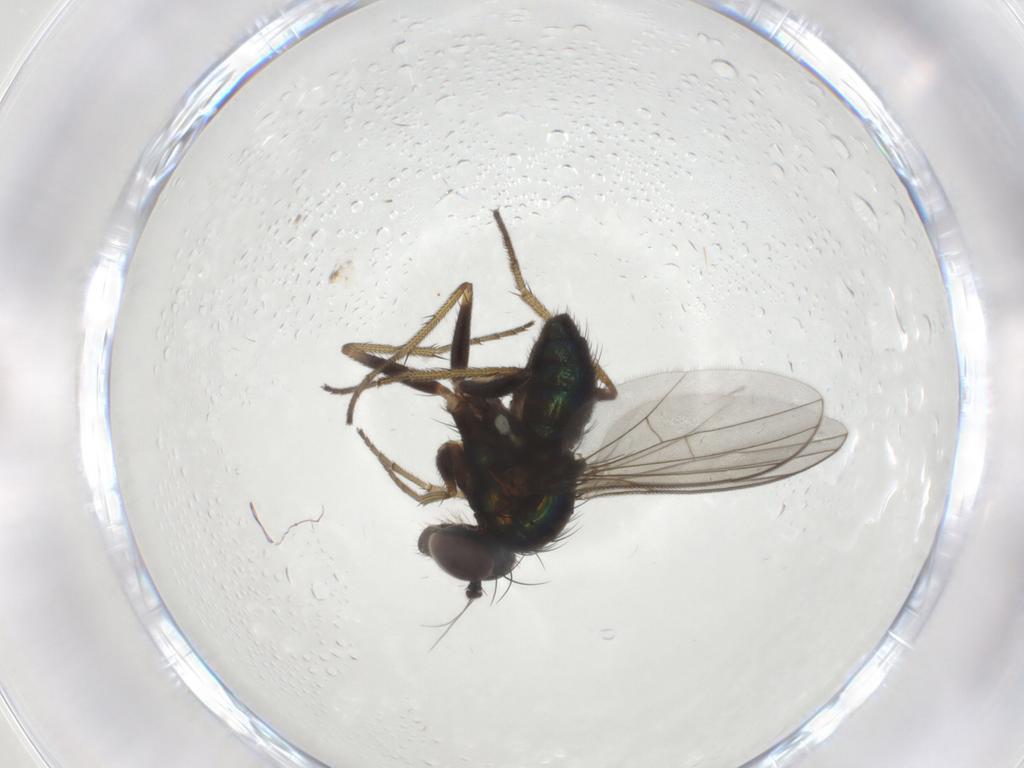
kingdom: Animalia
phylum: Arthropoda
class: Insecta
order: Diptera
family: Dolichopodidae
